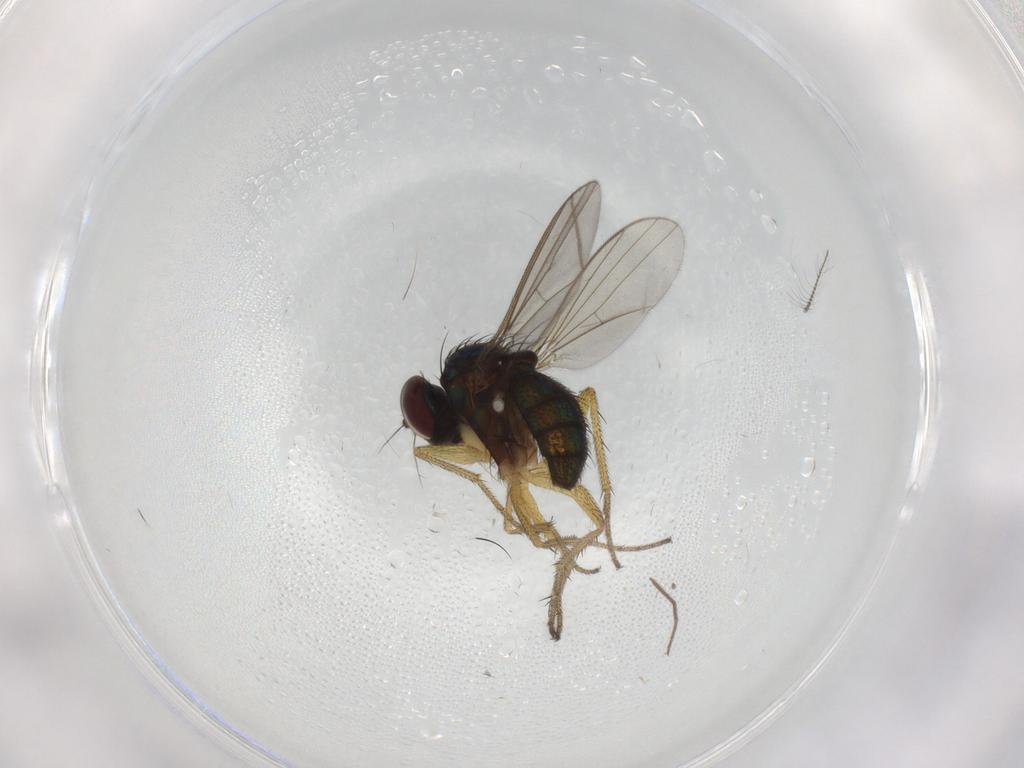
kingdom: Animalia
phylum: Arthropoda
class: Insecta
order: Diptera
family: Chironomidae
